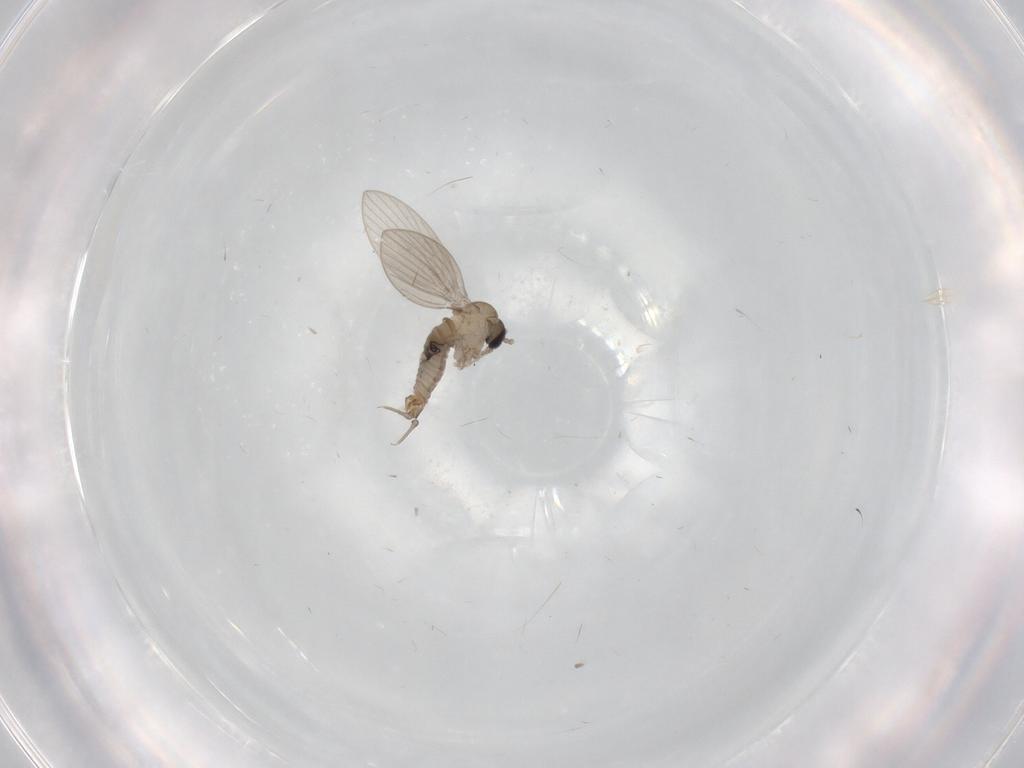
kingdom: Animalia
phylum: Arthropoda
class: Insecta
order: Diptera
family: Psychodidae
